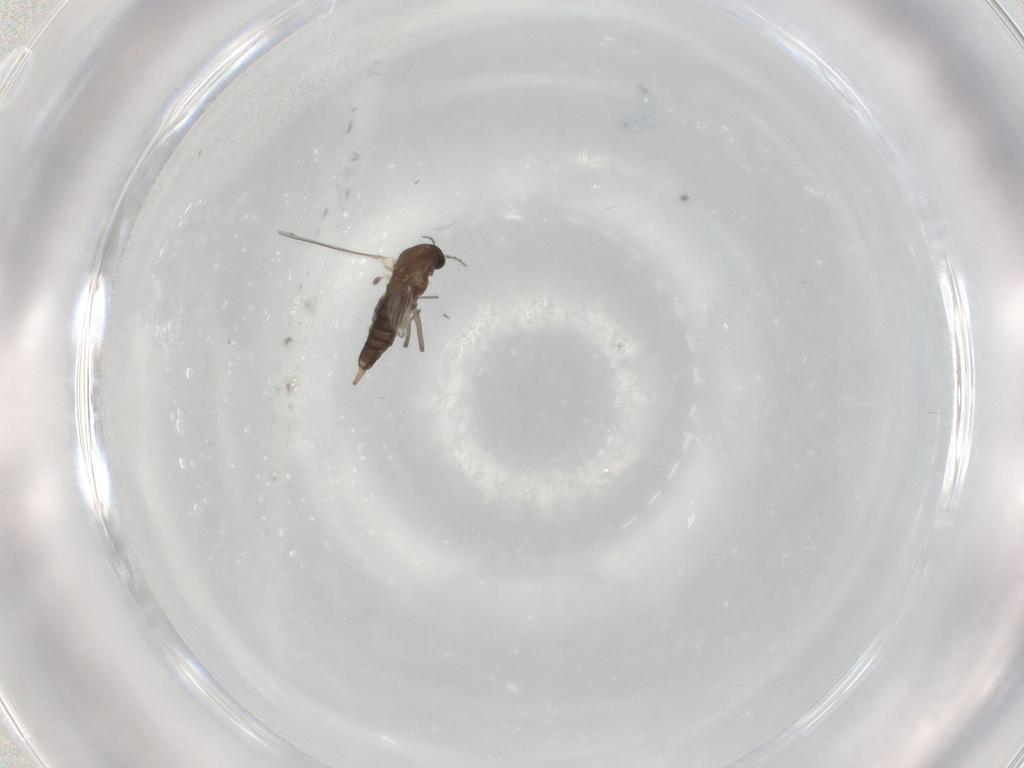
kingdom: Animalia
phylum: Arthropoda
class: Insecta
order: Diptera
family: Chironomidae
